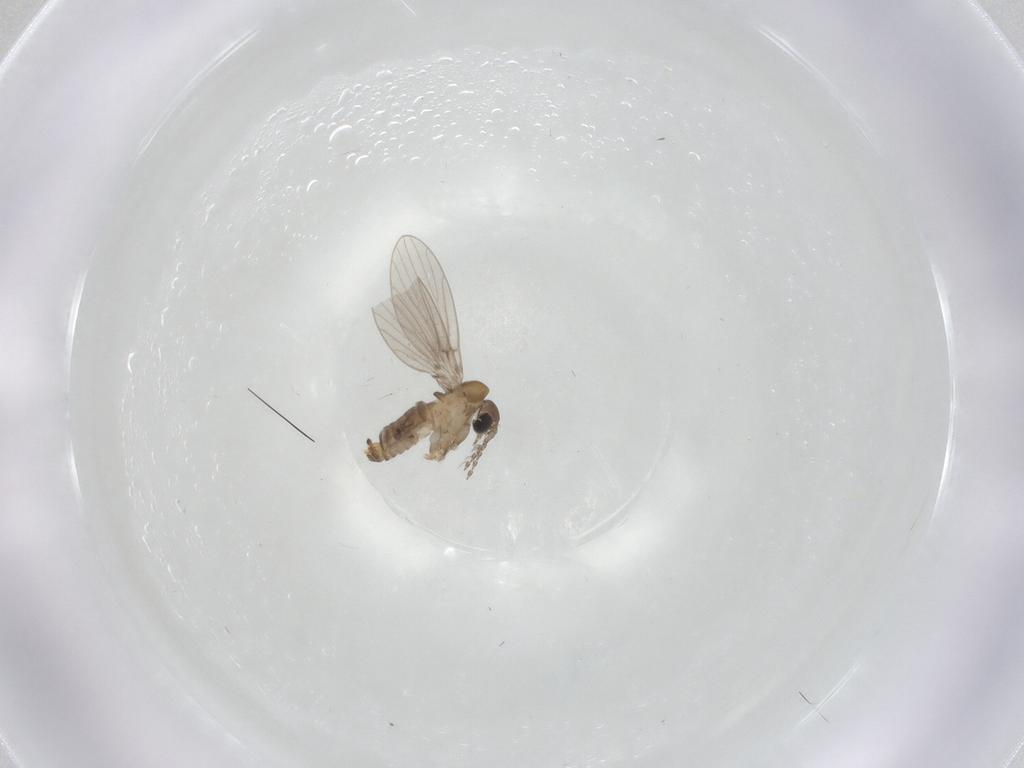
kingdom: Animalia
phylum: Arthropoda
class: Insecta
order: Diptera
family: Psychodidae
